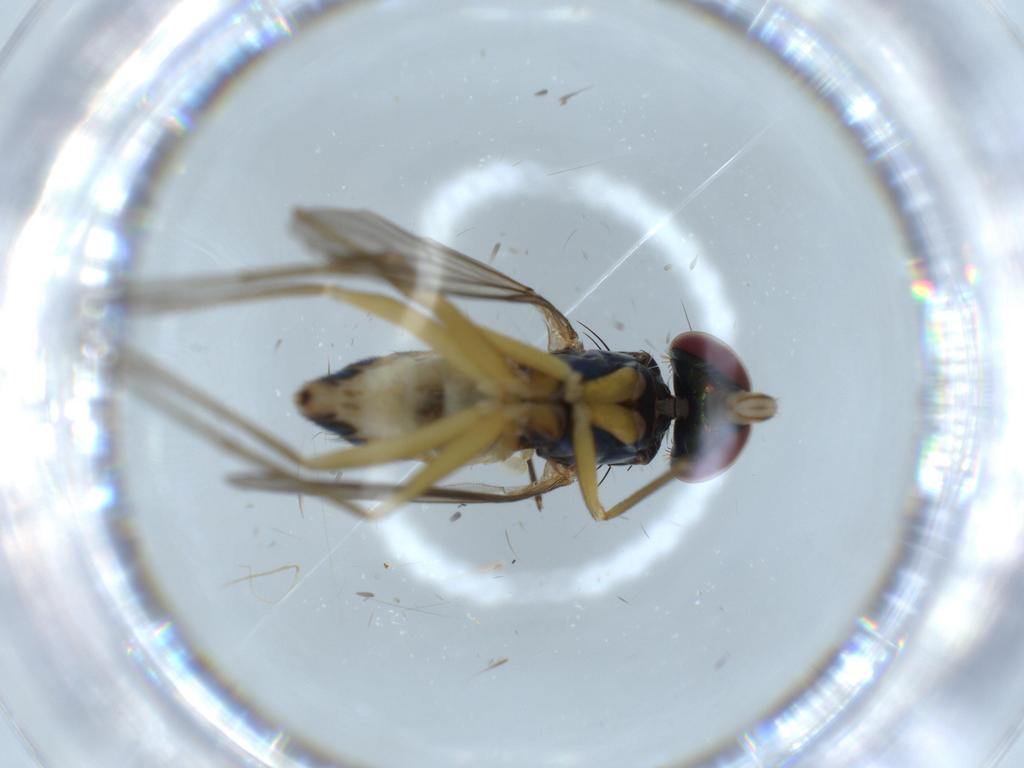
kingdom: Animalia
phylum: Arthropoda
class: Insecta
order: Diptera
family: Dolichopodidae
